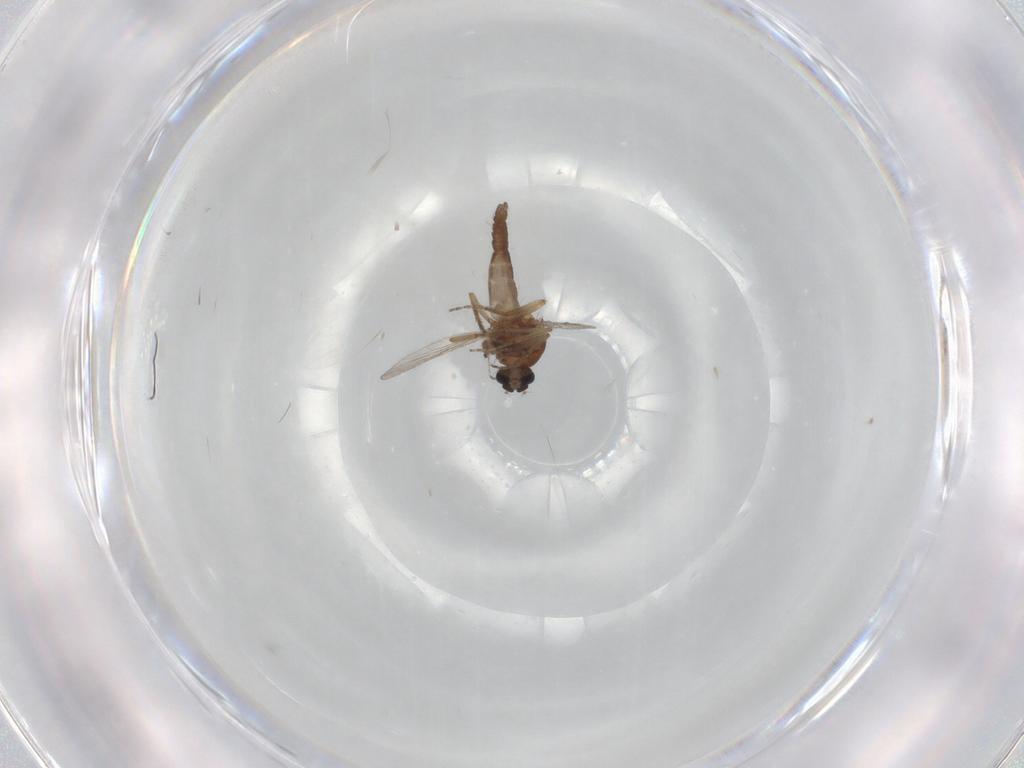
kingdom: Animalia
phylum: Arthropoda
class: Insecta
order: Diptera
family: Ceratopogonidae
